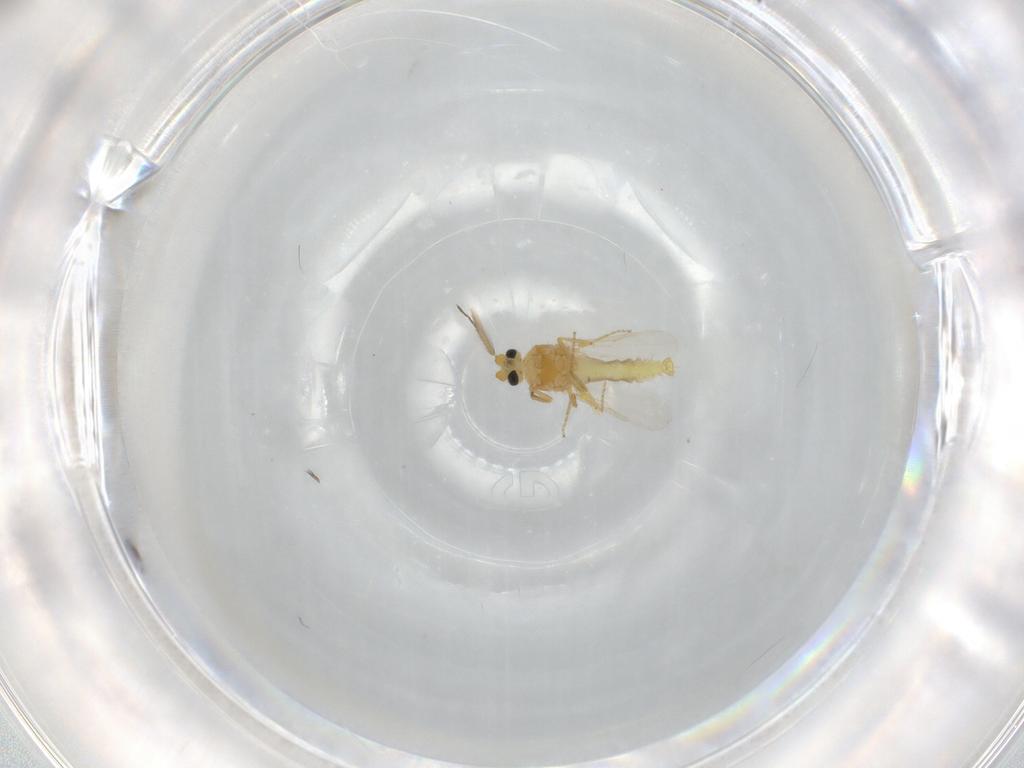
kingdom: Animalia
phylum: Arthropoda
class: Insecta
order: Diptera
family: Phoridae
